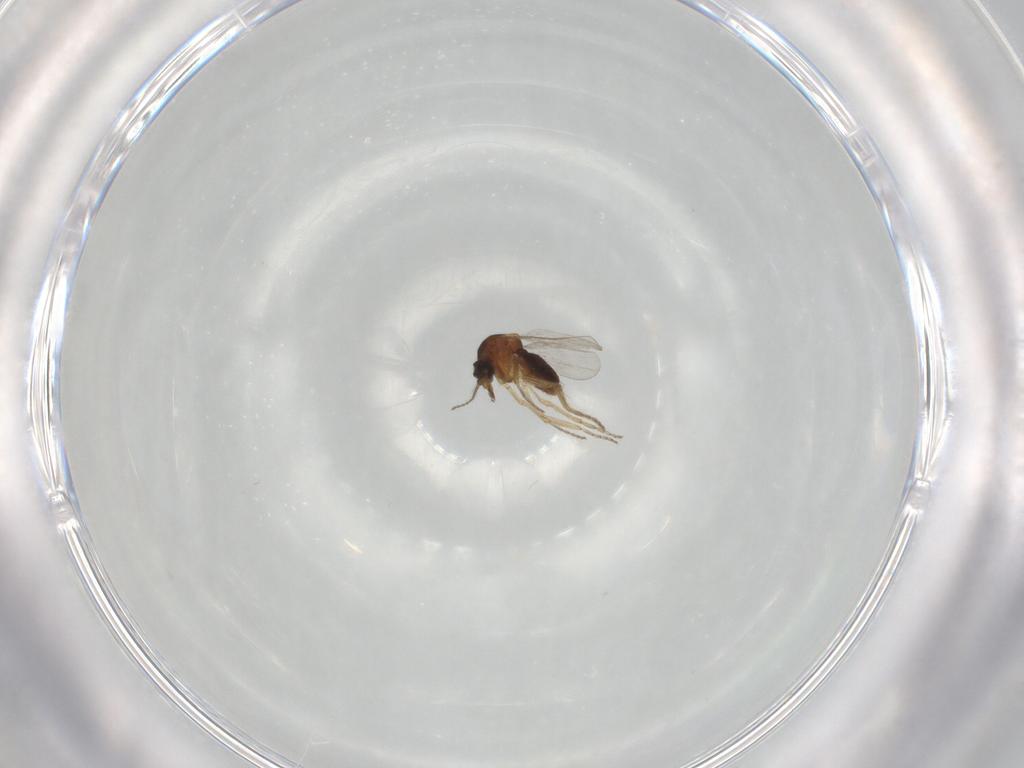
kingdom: Animalia
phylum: Arthropoda
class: Insecta
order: Diptera
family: Ceratopogonidae
